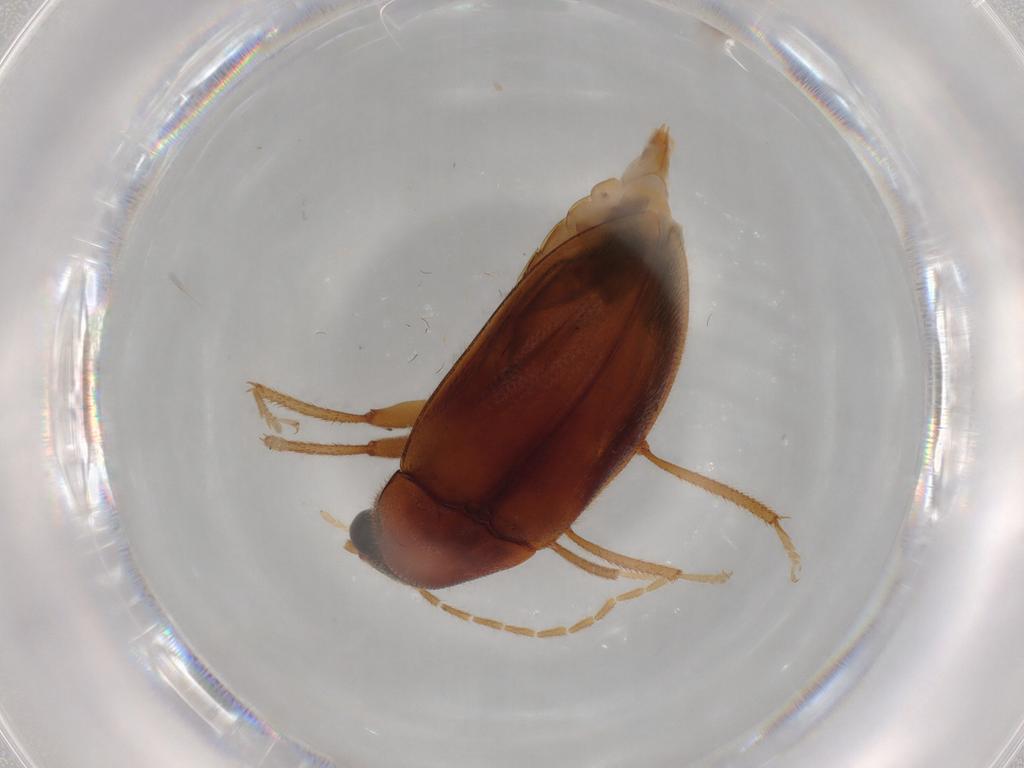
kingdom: Animalia
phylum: Arthropoda
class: Insecta
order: Coleoptera
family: Ptilodactylidae
